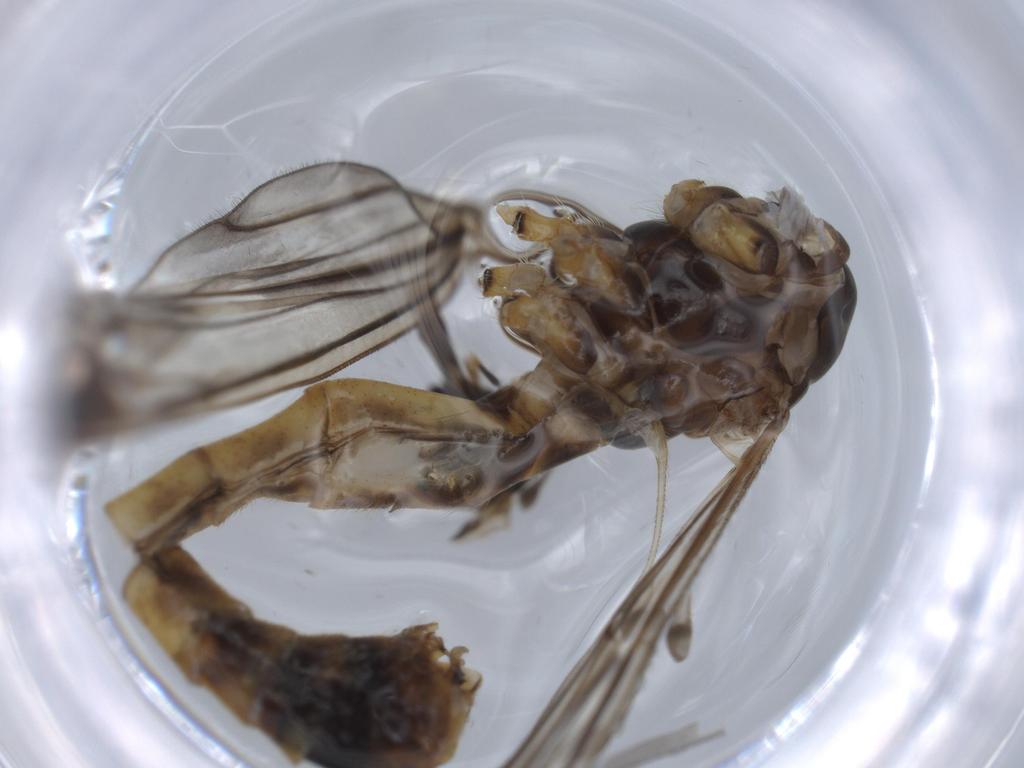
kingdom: Animalia
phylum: Arthropoda
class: Insecta
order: Diptera
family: Chironomidae
